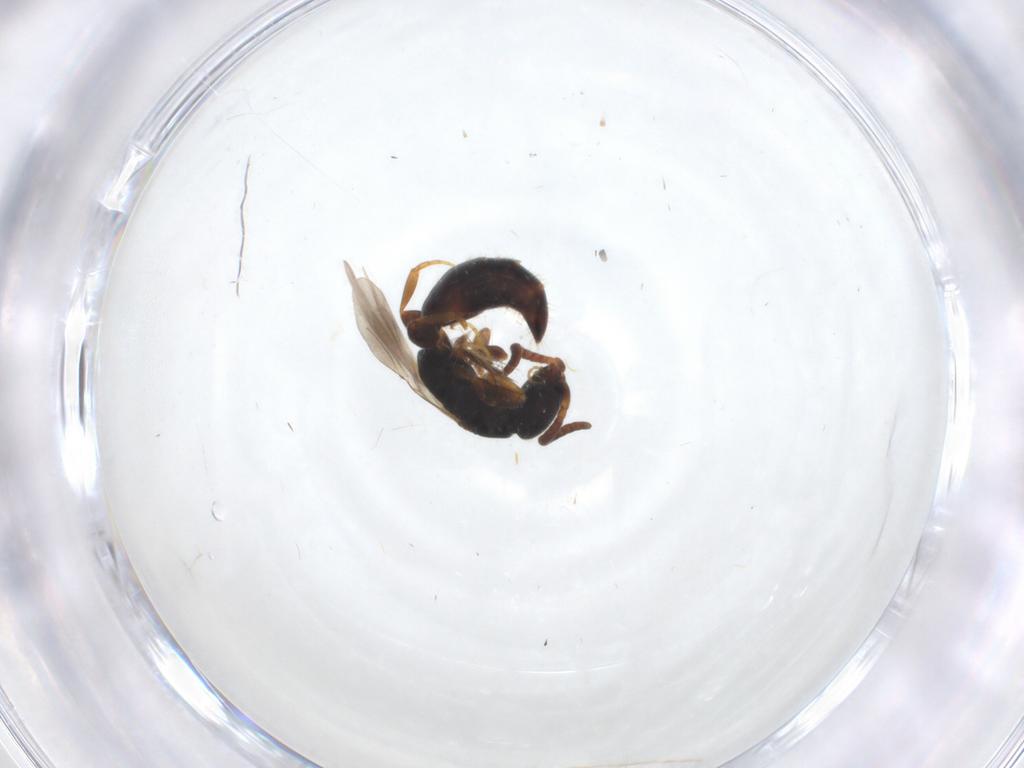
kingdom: Animalia
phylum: Arthropoda
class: Insecta
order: Hymenoptera
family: Bethylidae
